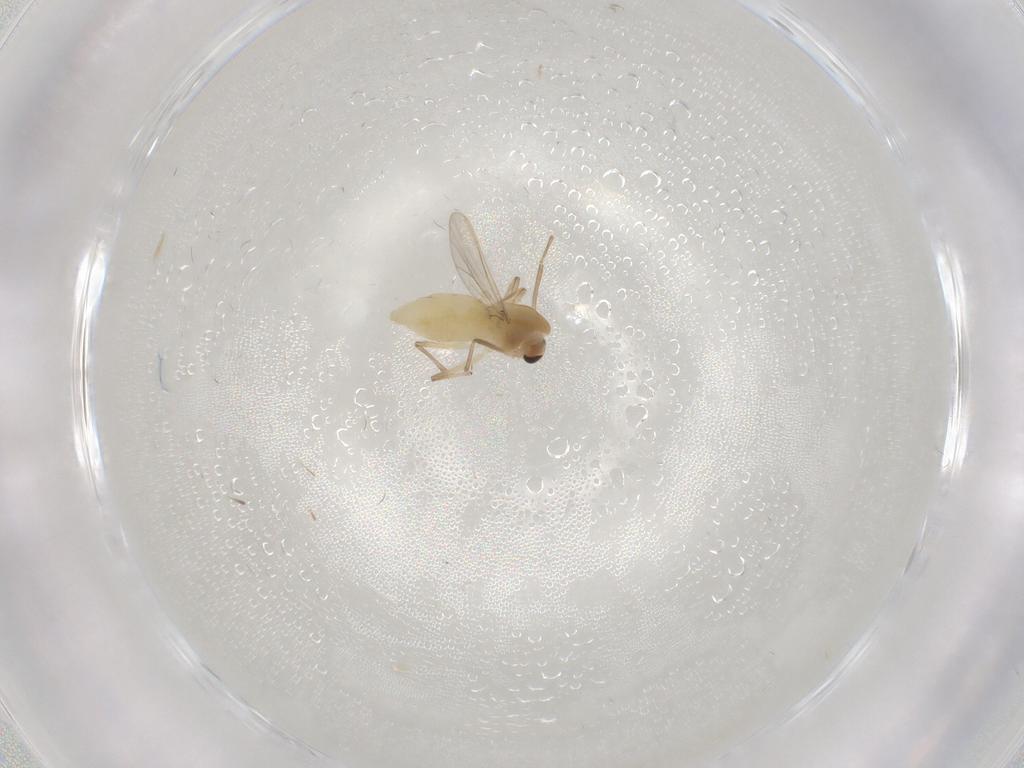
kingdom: Animalia
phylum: Arthropoda
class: Insecta
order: Diptera
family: Chironomidae
